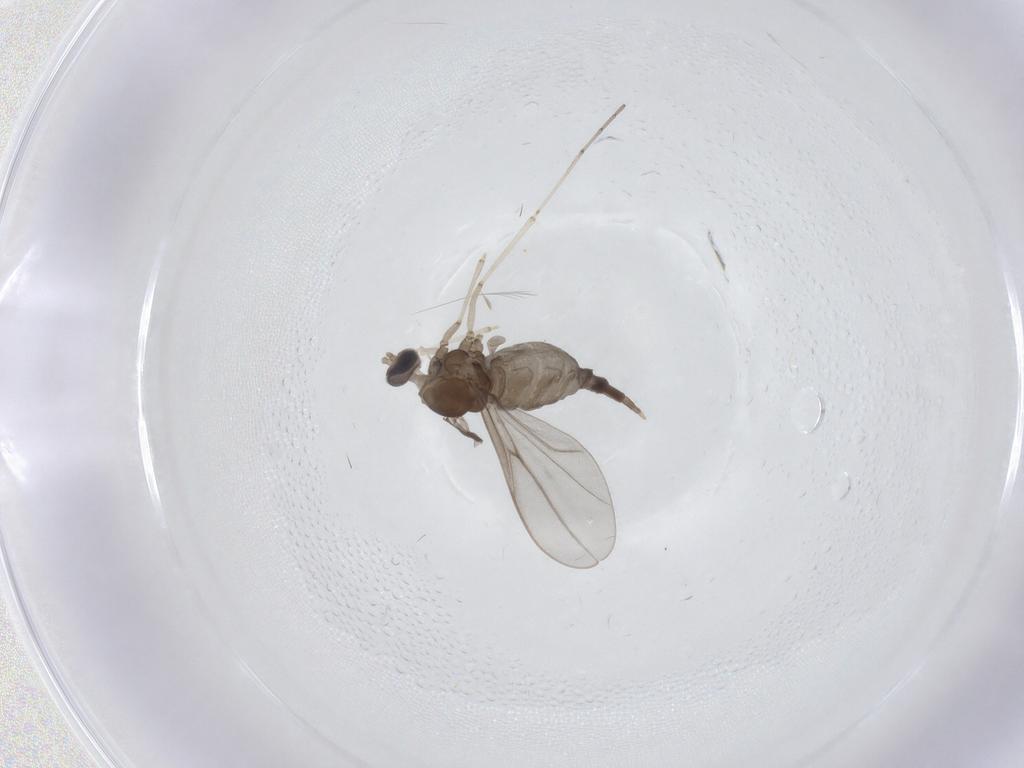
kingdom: Animalia
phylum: Arthropoda
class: Insecta
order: Diptera
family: Cecidomyiidae
